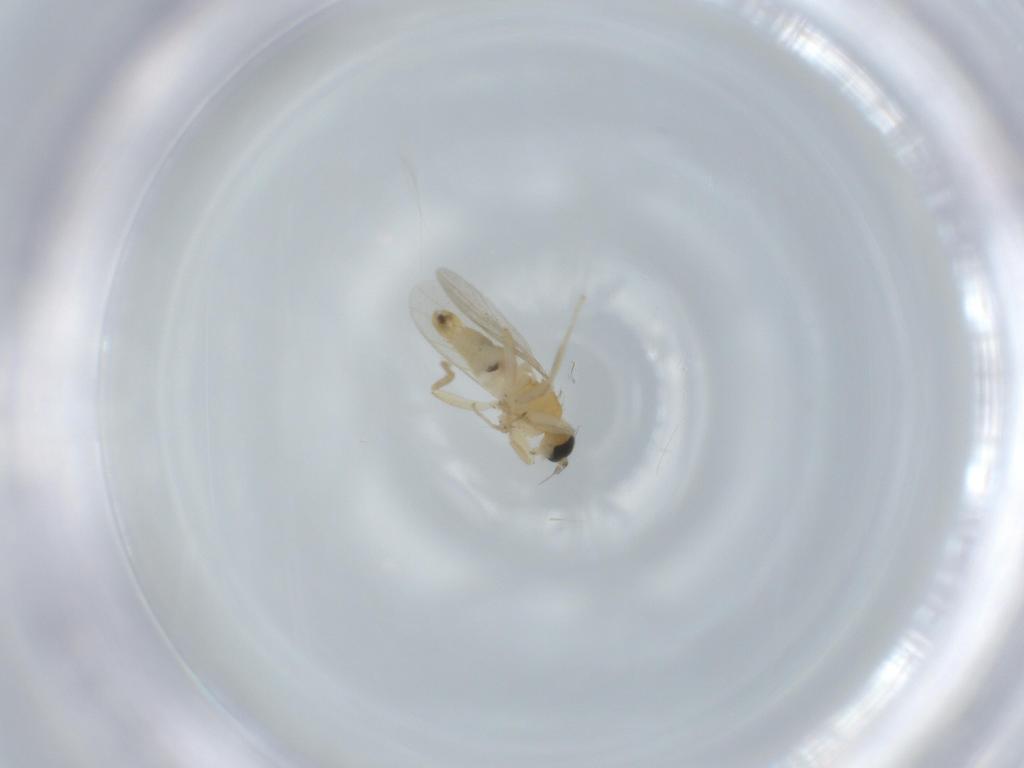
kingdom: Animalia
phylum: Arthropoda
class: Insecta
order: Diptera
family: Hybotidae
